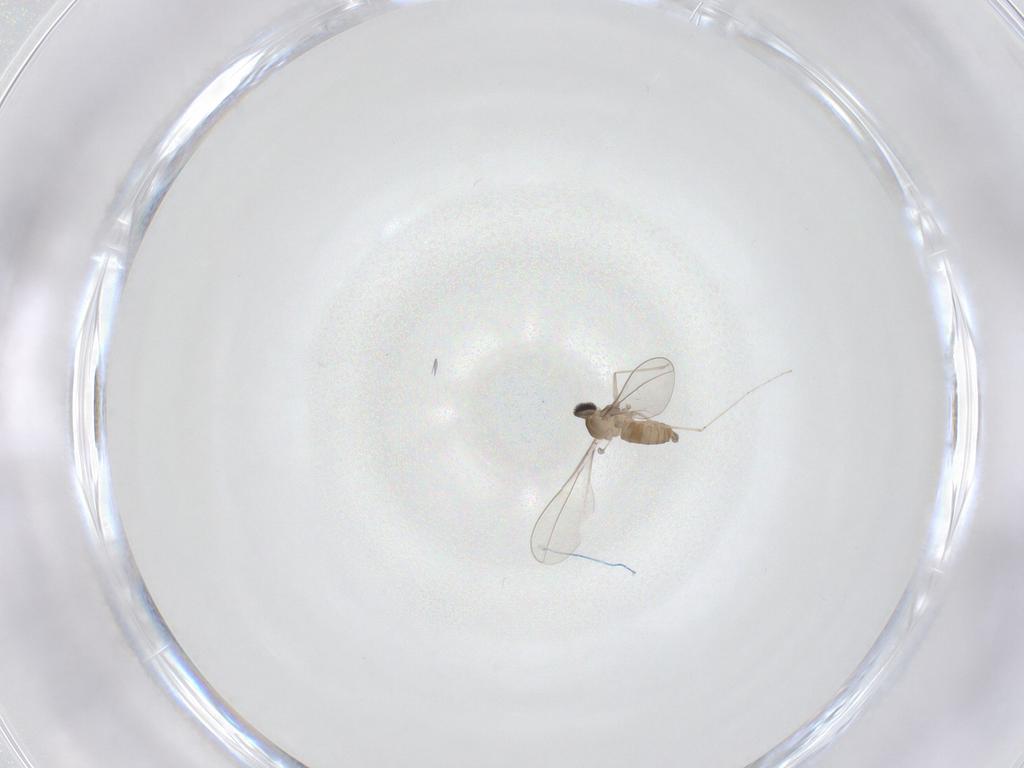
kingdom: Animalia
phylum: Arthropoda
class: Insecta
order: Diptera
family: Cecidomyiidae
